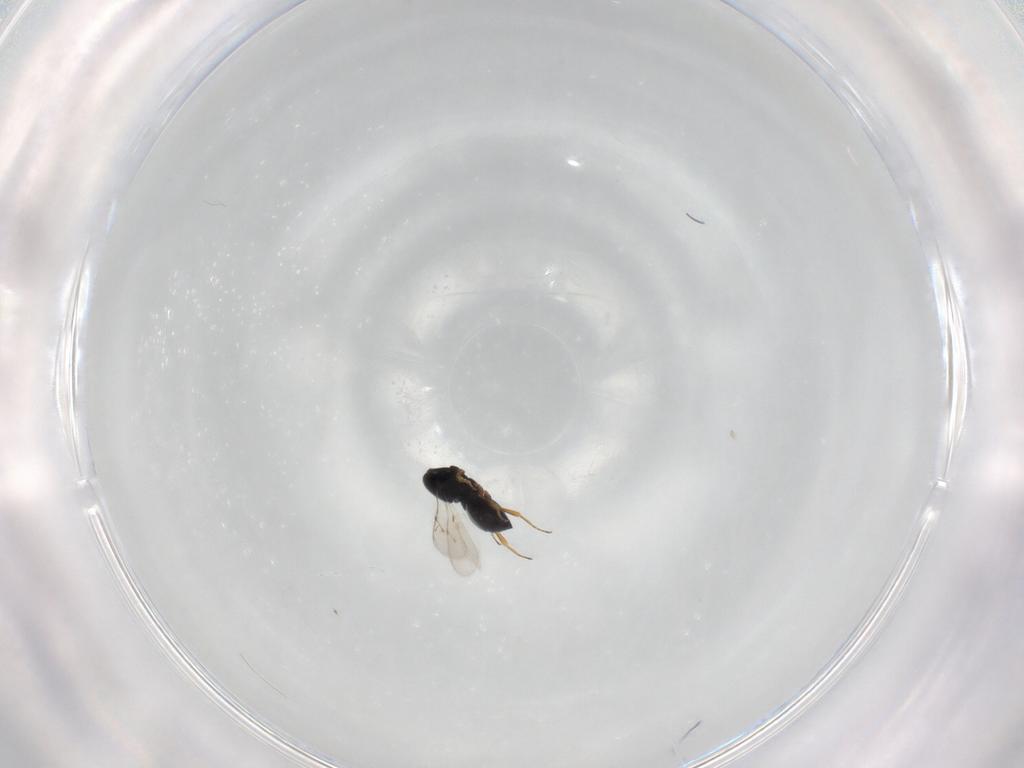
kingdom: Animalia
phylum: Arthropoda
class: Insecta
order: Hymenoptera
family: Scelionidae
